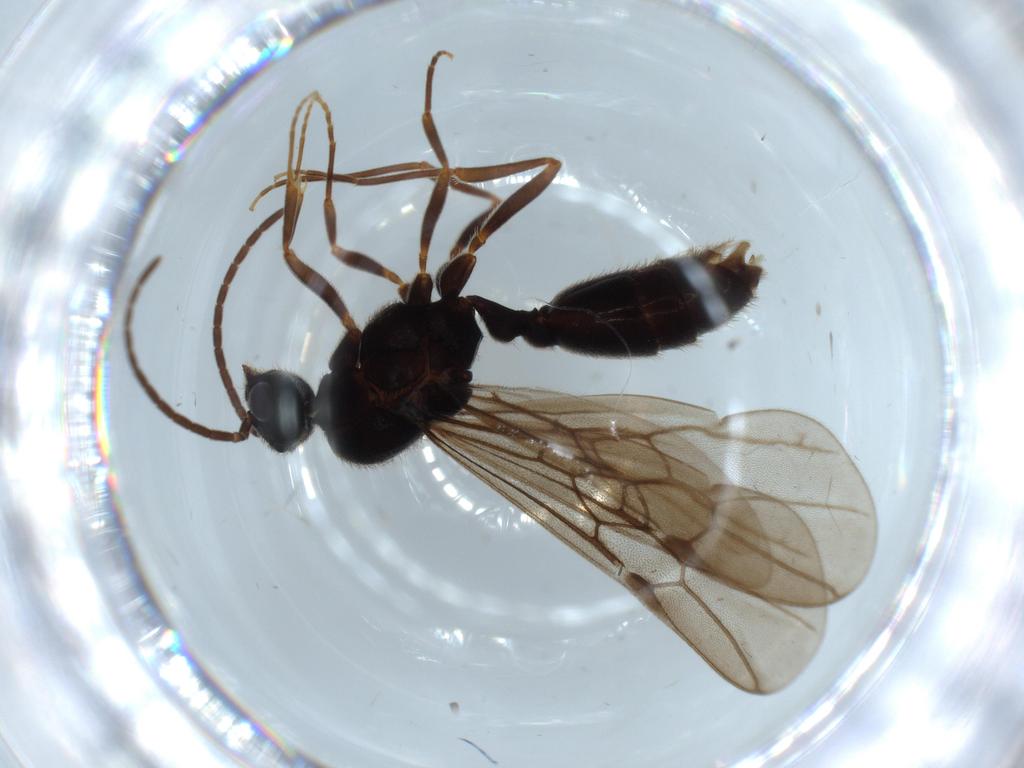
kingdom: Animalia
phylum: Arthropoda
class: Insecta
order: Hymenoptera
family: Formicidae
